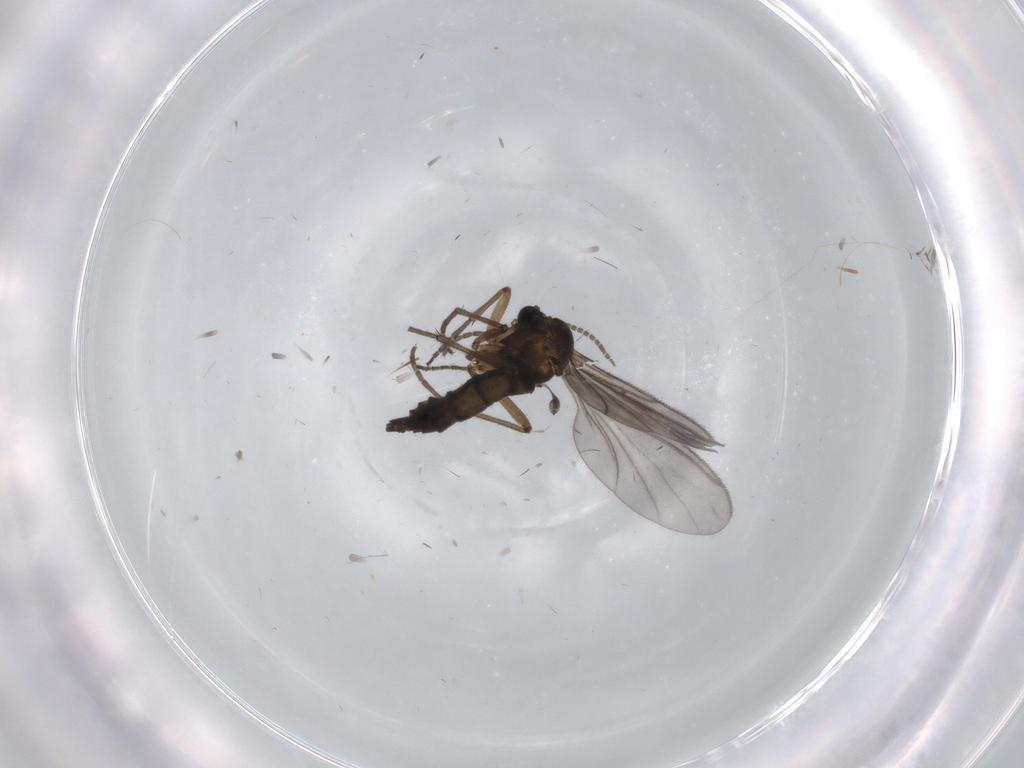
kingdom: Animalia
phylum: Arthropoda
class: Insecta
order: Diptera
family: Sciaridae
